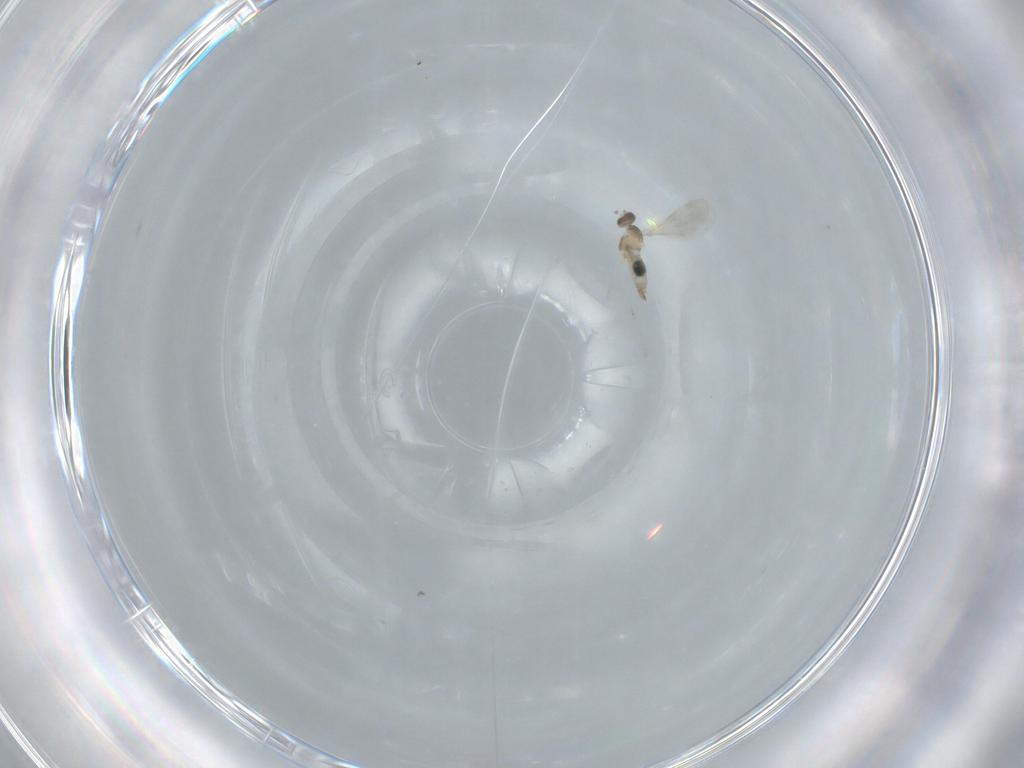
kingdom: Animalia
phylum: Arthropoda
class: Insecta
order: Diptera
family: Cecidomyiidae
